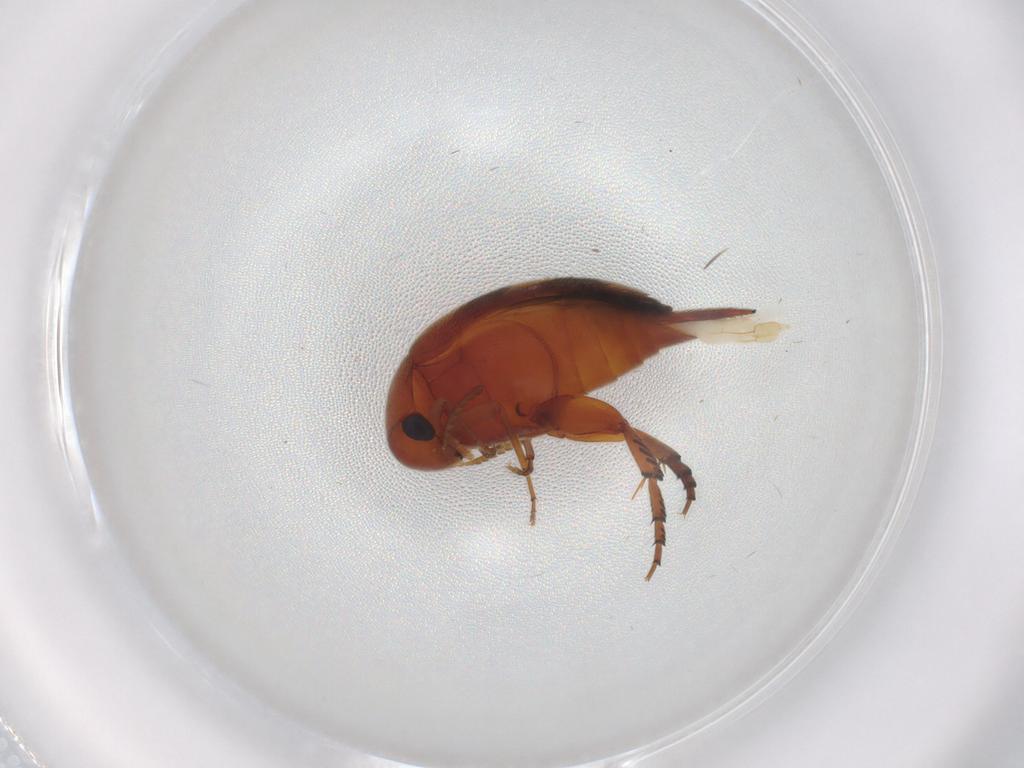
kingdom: Animalia
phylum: Arthropoda
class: Insecta
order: Coleoptera
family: Mordellidae
